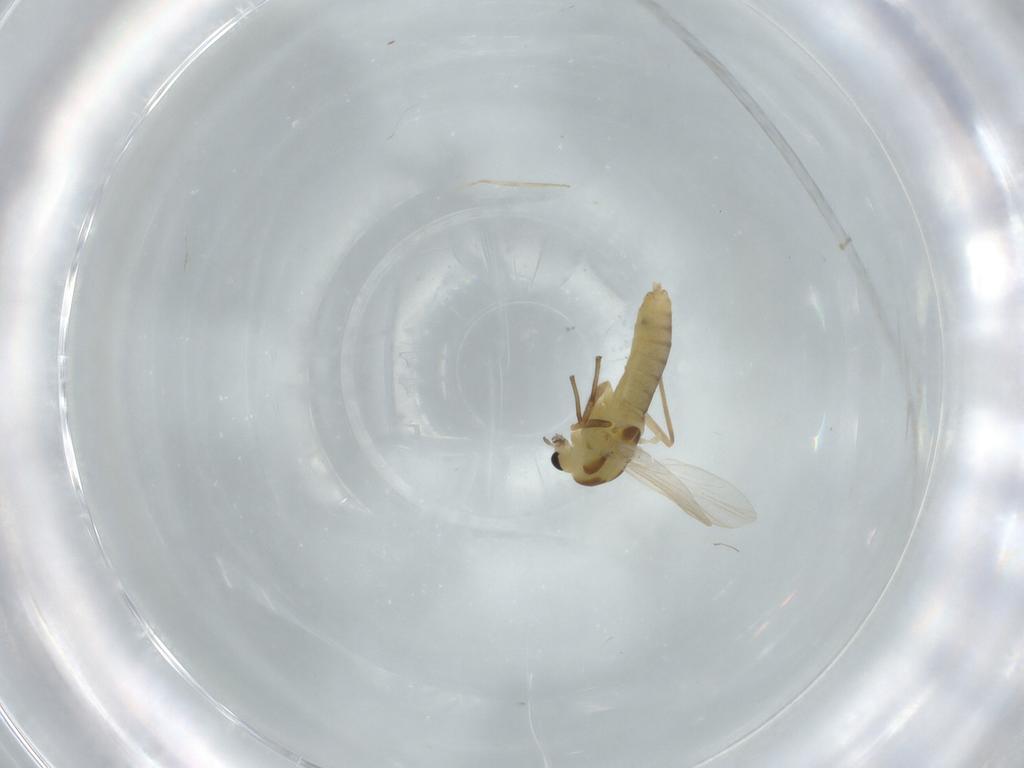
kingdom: Animalia
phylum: Arthropoda
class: Insecta
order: Diptera
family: Chironomidae
